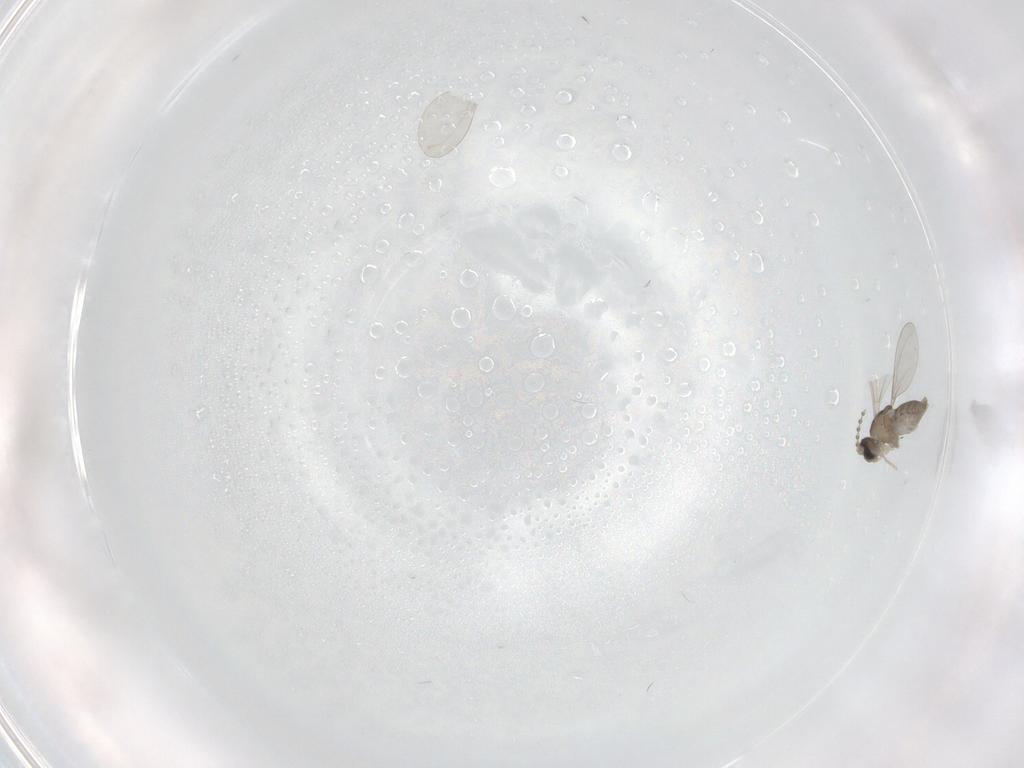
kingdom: Animalia
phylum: Arthropoda
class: Insecta
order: Diptera
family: Cecidomyiidae
